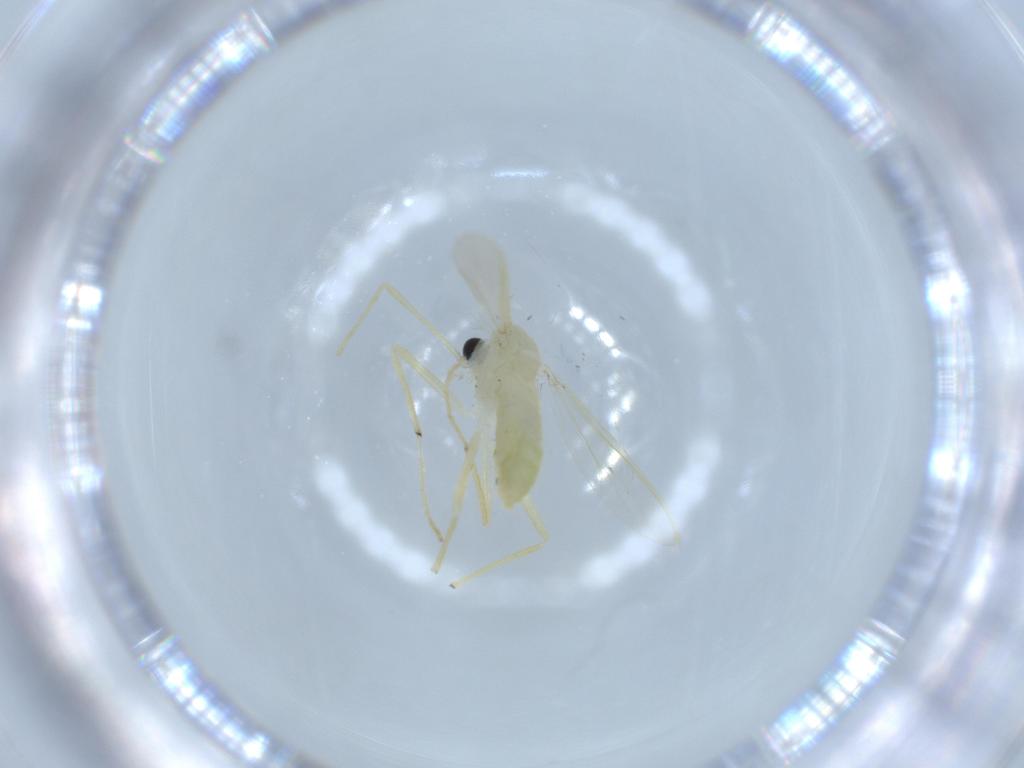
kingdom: Animalia
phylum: Arthropoda
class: Insecta
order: Diptera
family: Chironomidae
